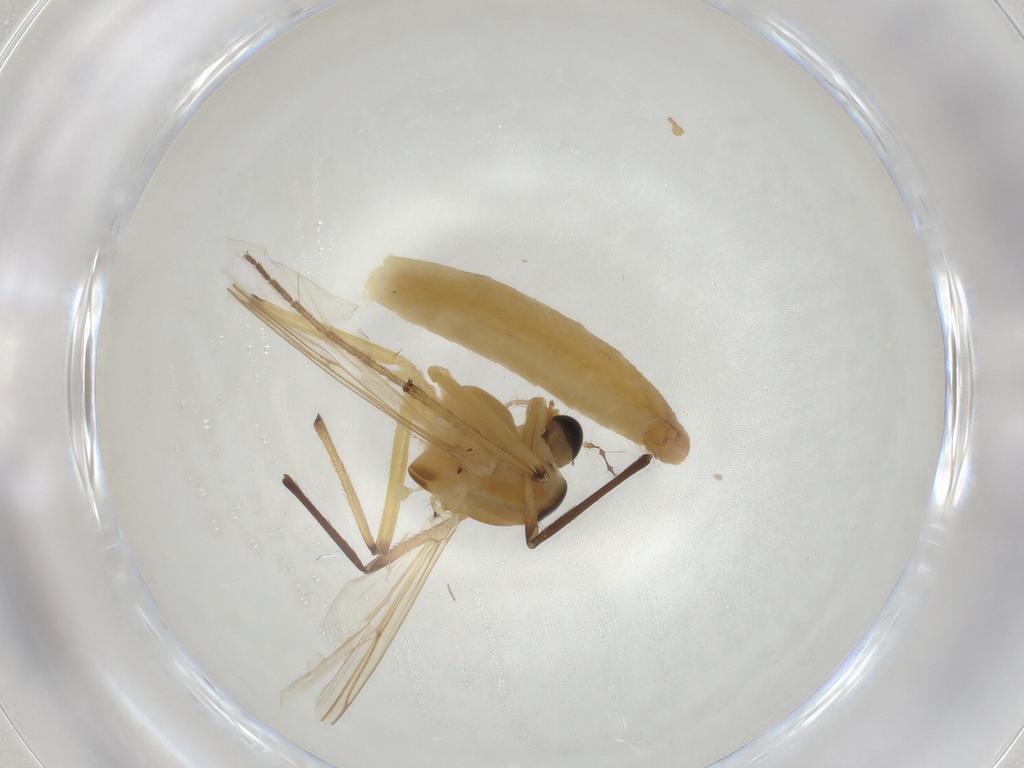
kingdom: Animalia
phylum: Arthropoda
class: Insecta
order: Diptera
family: Chironomidae
